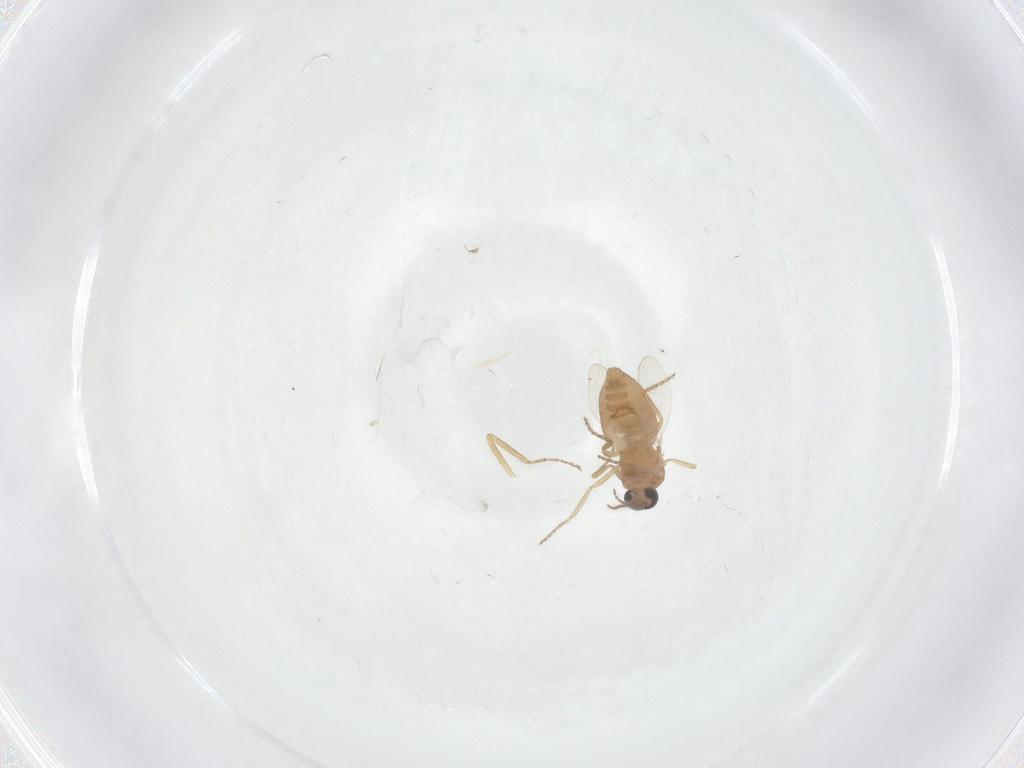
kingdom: Animalia
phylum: Arthropoda
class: Insecta
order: Diptera
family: Ceratopogonidae
